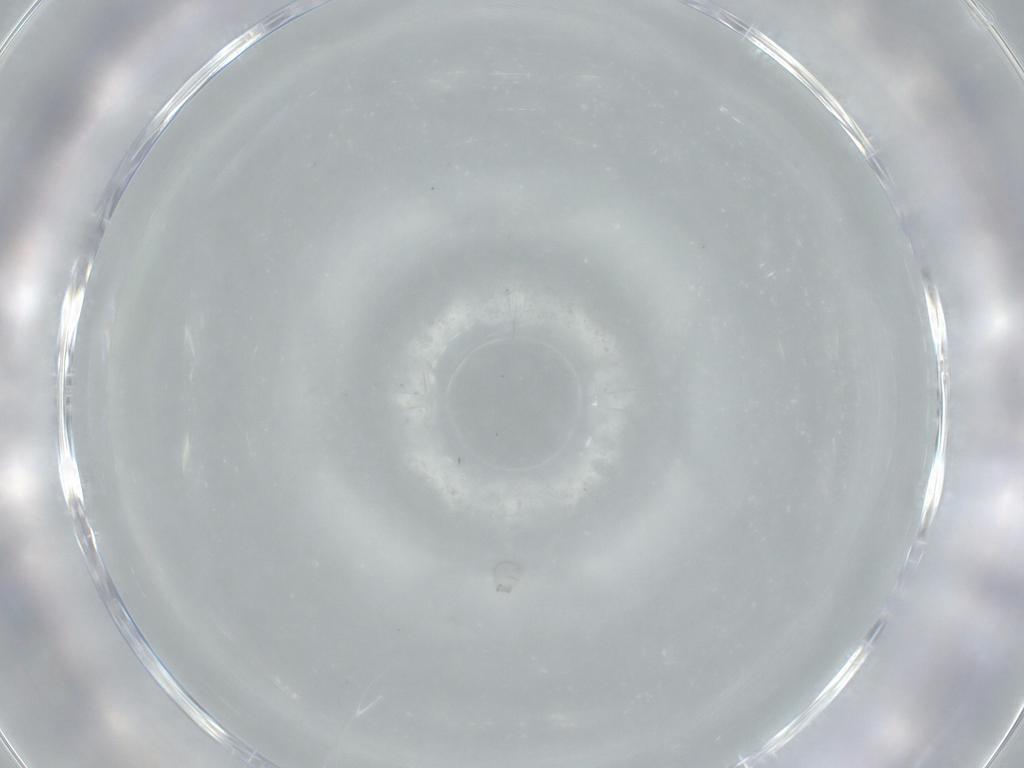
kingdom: Animalia
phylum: Arthropoda
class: Insecta
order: Hymenoptera
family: Trichogrammatidae
